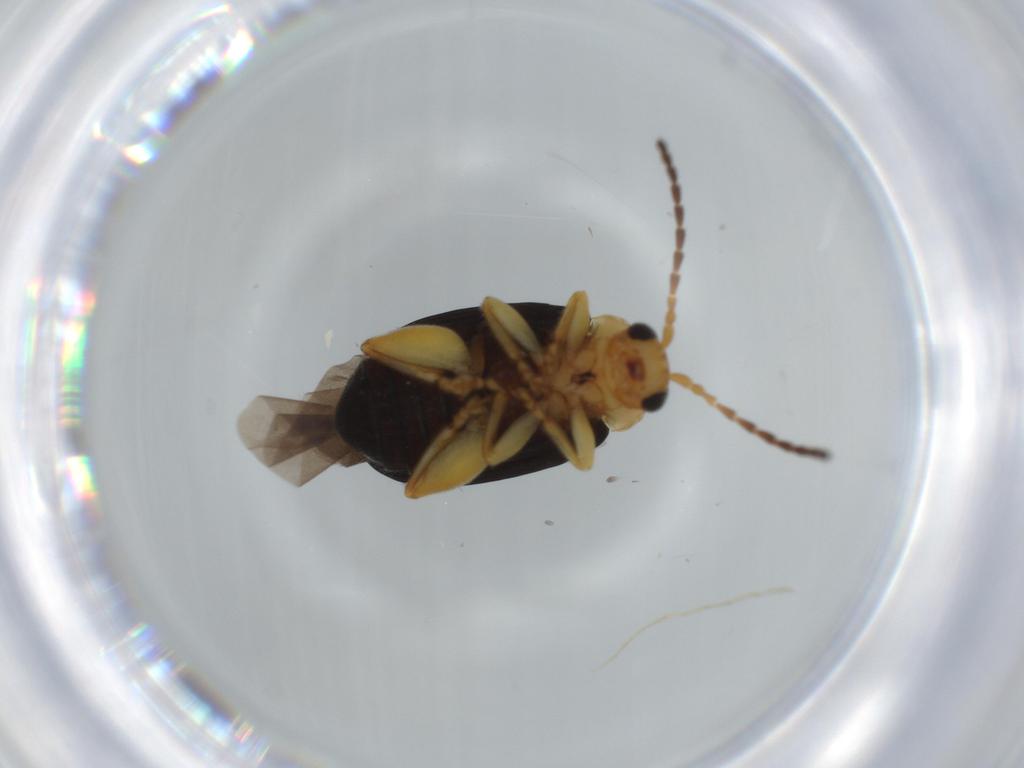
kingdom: Animalia
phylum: Arthropoda
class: Insecta
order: Coleoptera
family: Chrysomelidae
